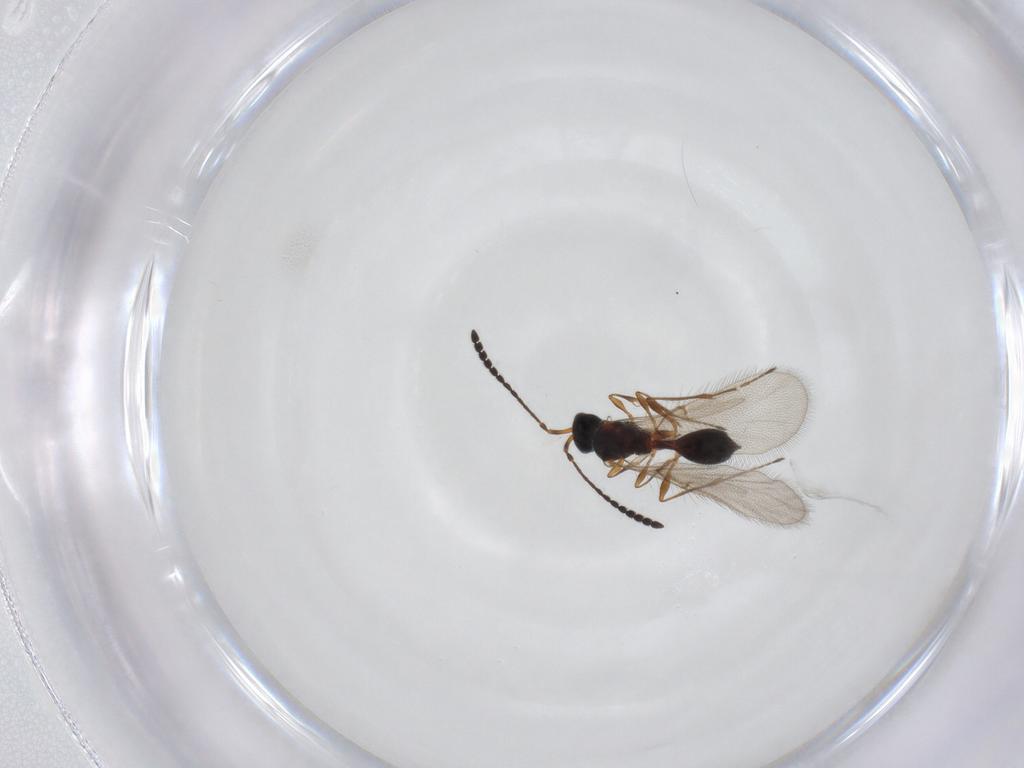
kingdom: Animalia
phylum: Arthropoda
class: Insecta
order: Hymenoptera
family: Diapriidae
